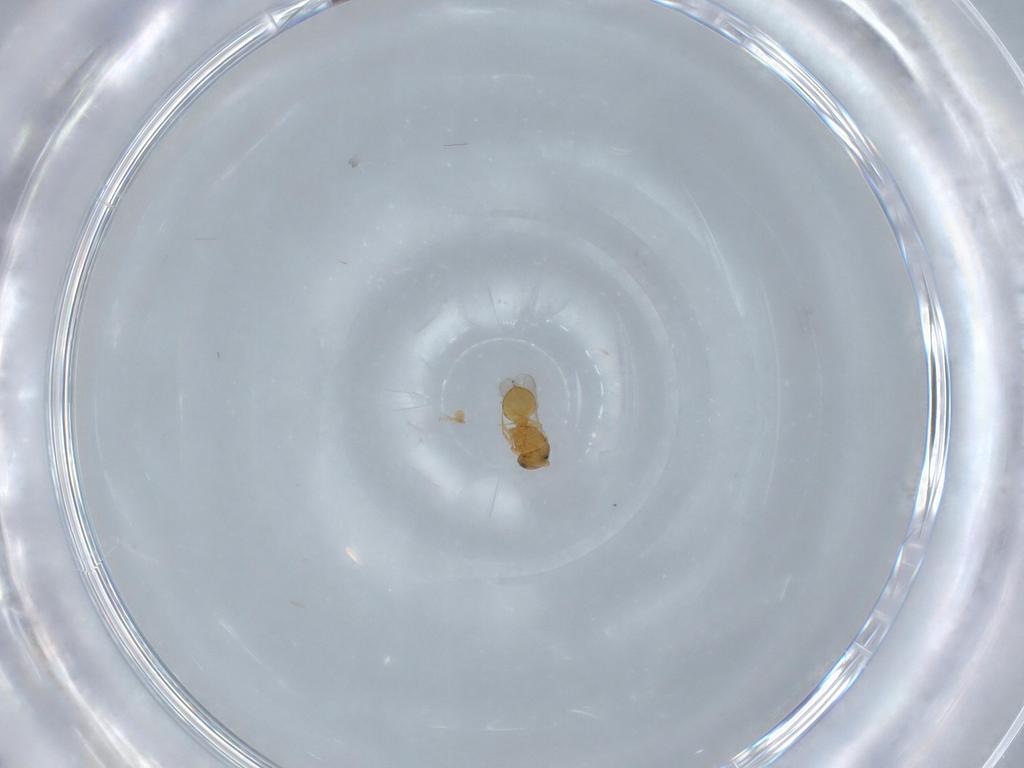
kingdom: Animalia
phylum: Arthropoda
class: Insecta
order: Hymenoptera
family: Scelionidae
